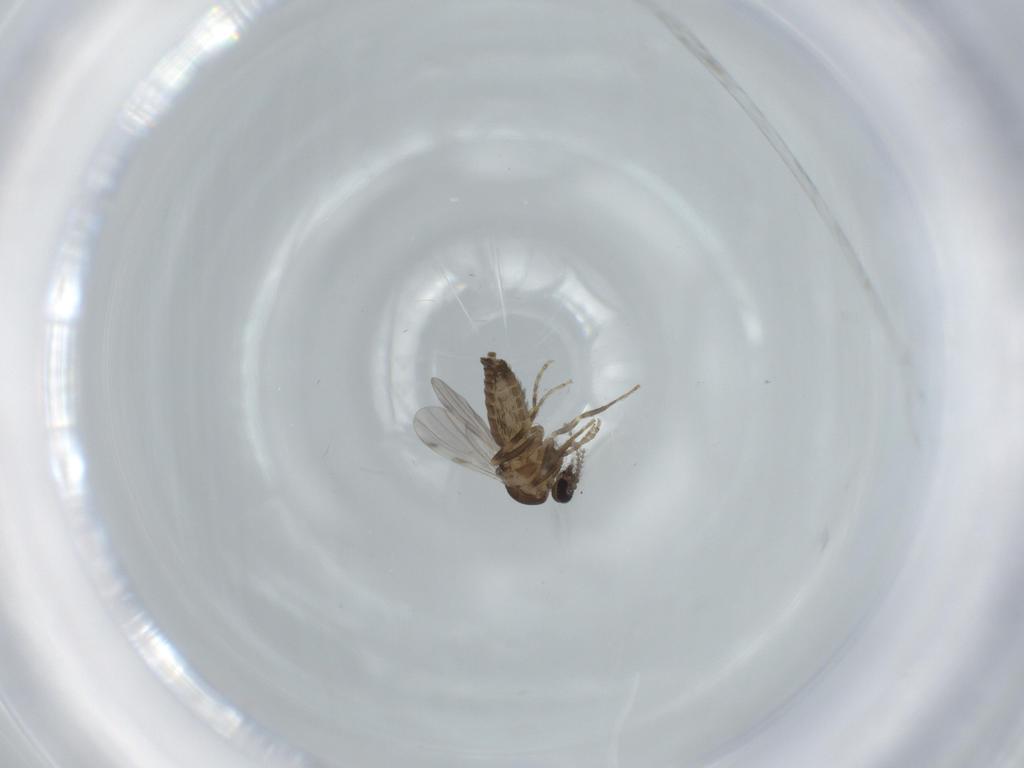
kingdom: Animalia
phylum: Arthropoda
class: Insecta
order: Diptera
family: Ceratopogonidae
